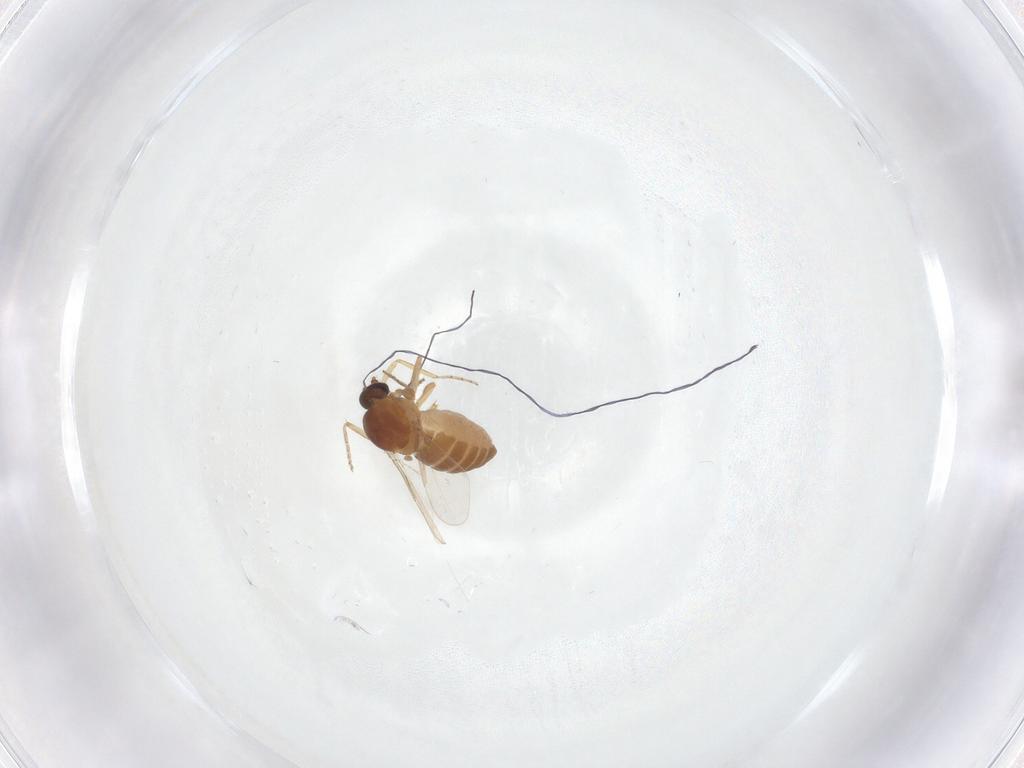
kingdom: Animalia
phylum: Arthropoda
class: Insecta
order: Diptera
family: Ceratopogonidae
